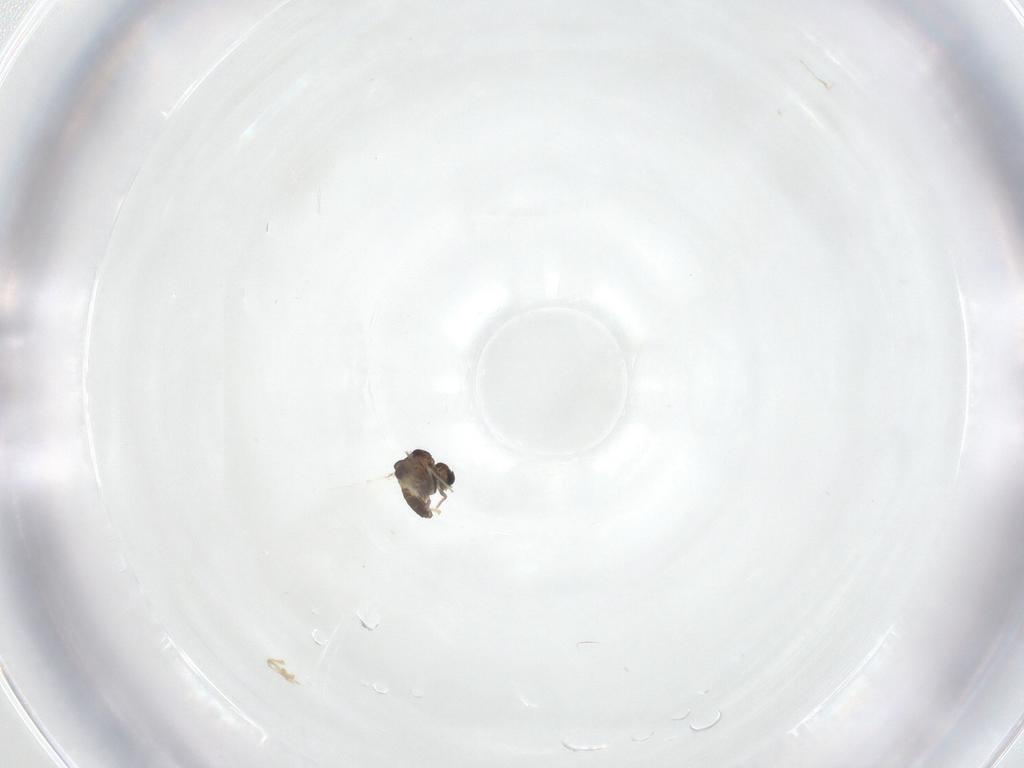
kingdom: Animalia
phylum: Arthropoda
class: Insecta
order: Diptera
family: Chironomidae
